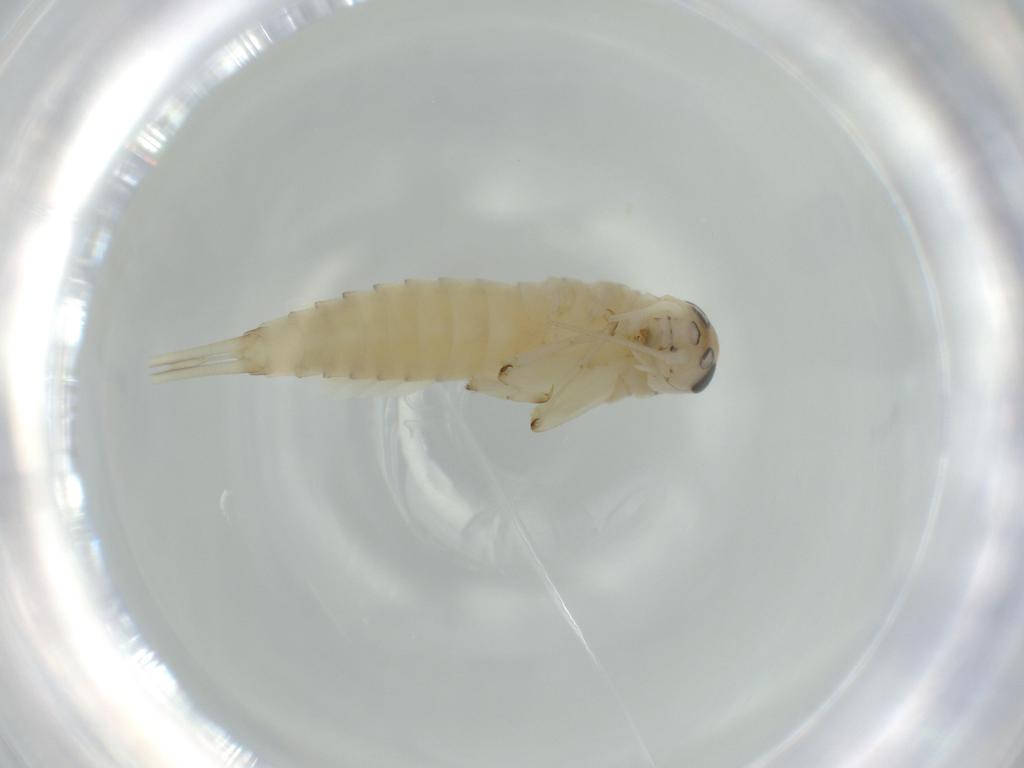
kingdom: Animalia
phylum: Arthropoda
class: Insecta
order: Ephemeroptera
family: Baetidae
